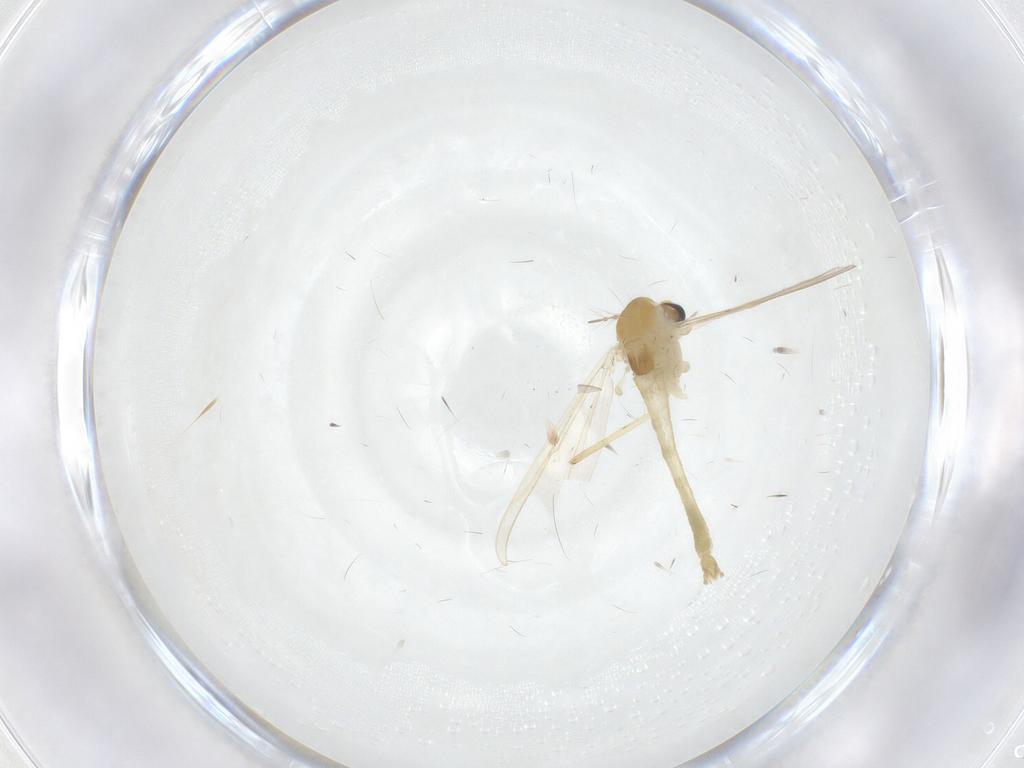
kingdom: Animalia
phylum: Arthropoda
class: Insecta
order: Diptera
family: Chironomidae
